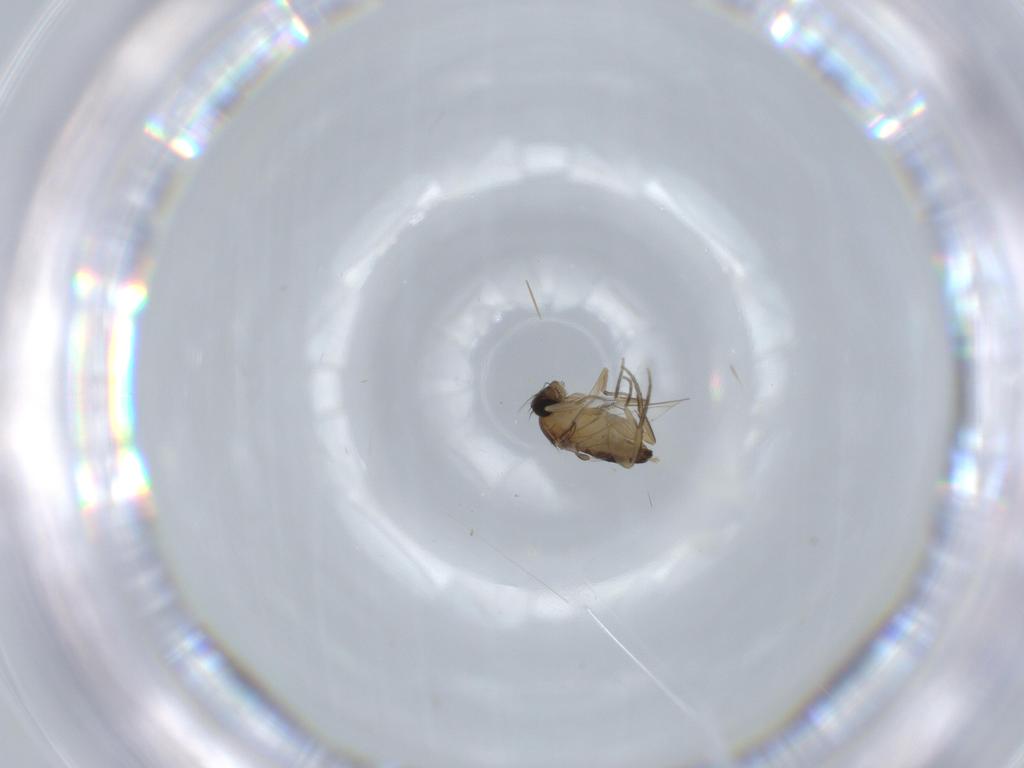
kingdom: Animalia
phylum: Arthropoda
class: Insecta
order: Diptera
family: Phoridae
